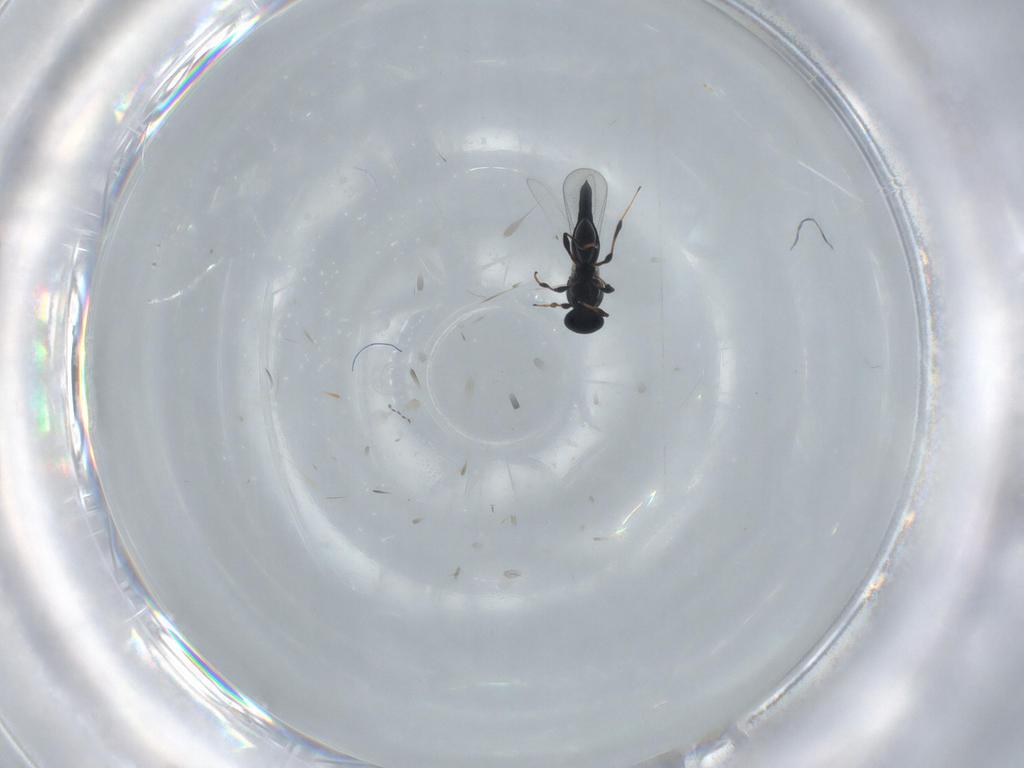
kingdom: Animalia
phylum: Arthropoda
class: Insecta
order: Hymenoptera
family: Platygastridae
